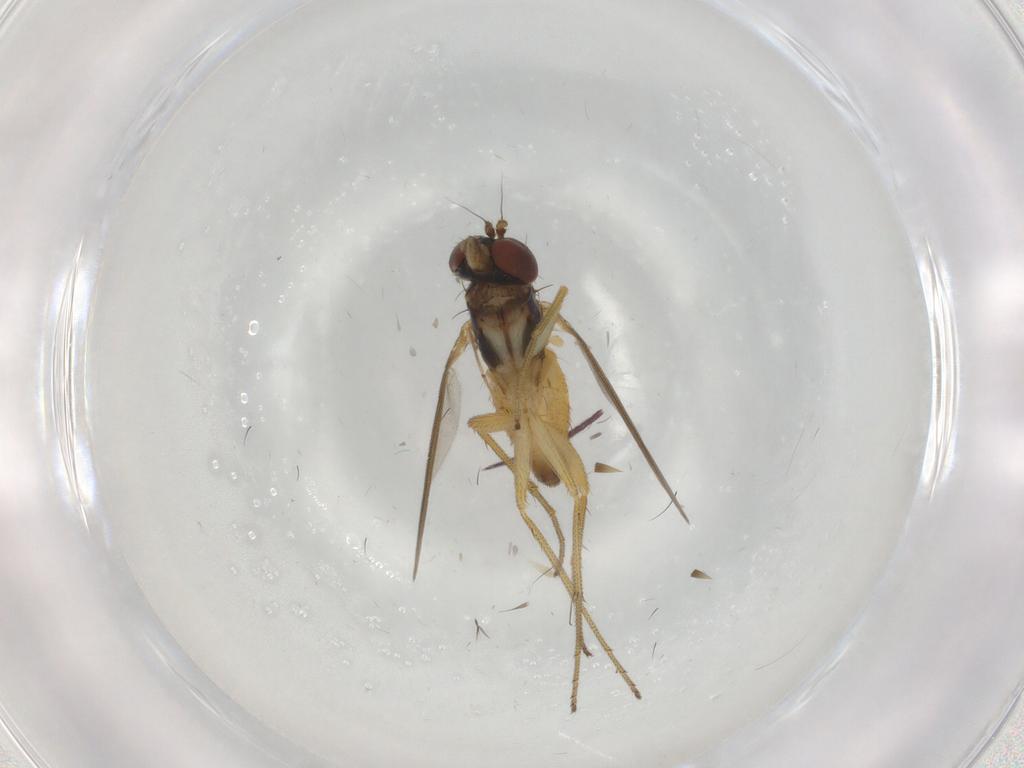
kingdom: Animalia
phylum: Arthropoda
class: Insecta
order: Diptera
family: Dolichopodidae
